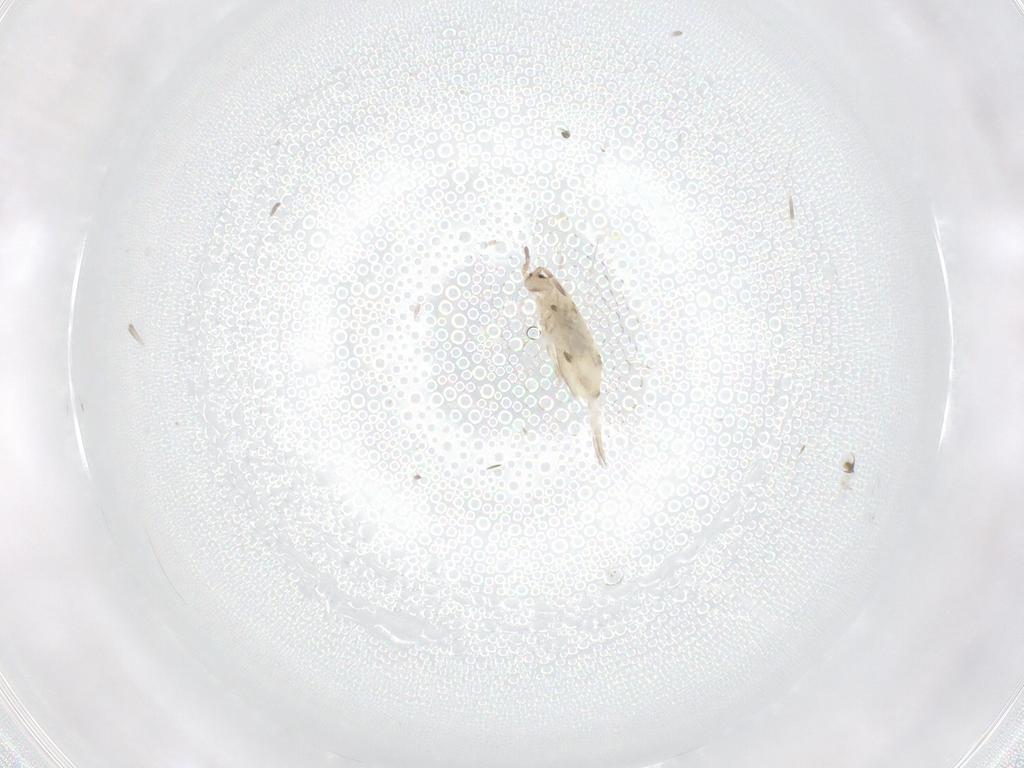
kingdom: Animalia
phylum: Arthropoda
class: Collembola
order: Entomobryomorpha
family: Entomobryidae
